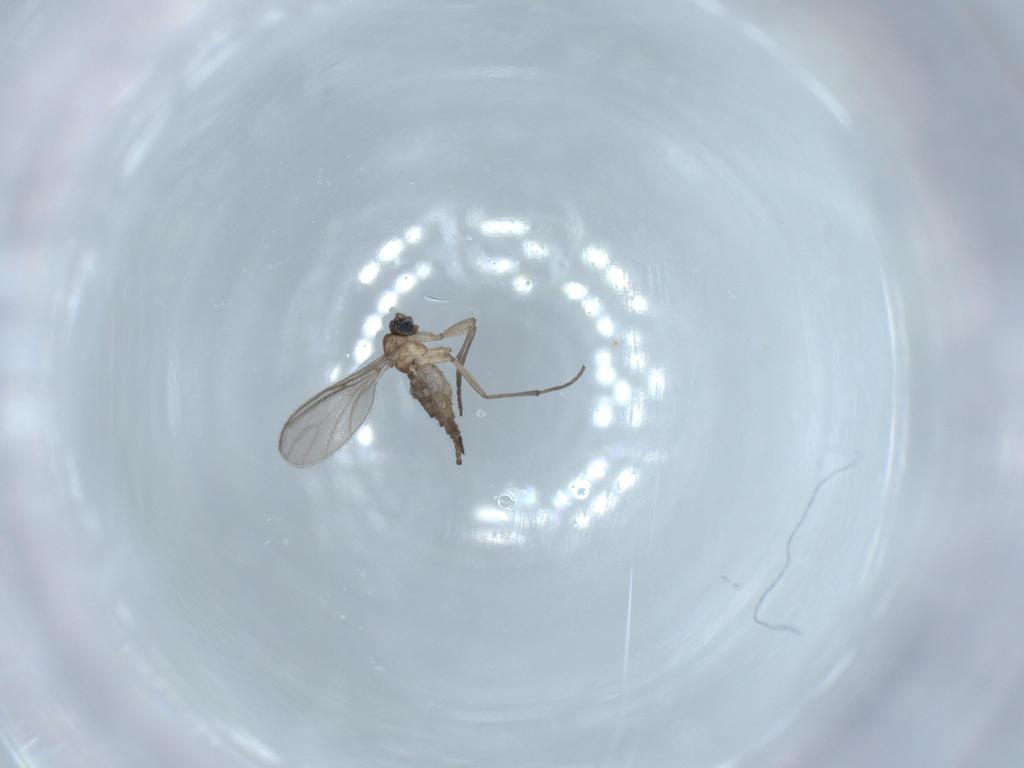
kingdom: Animalia
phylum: Arthropoda
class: Insecta
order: Diptera
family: Sciaridae
